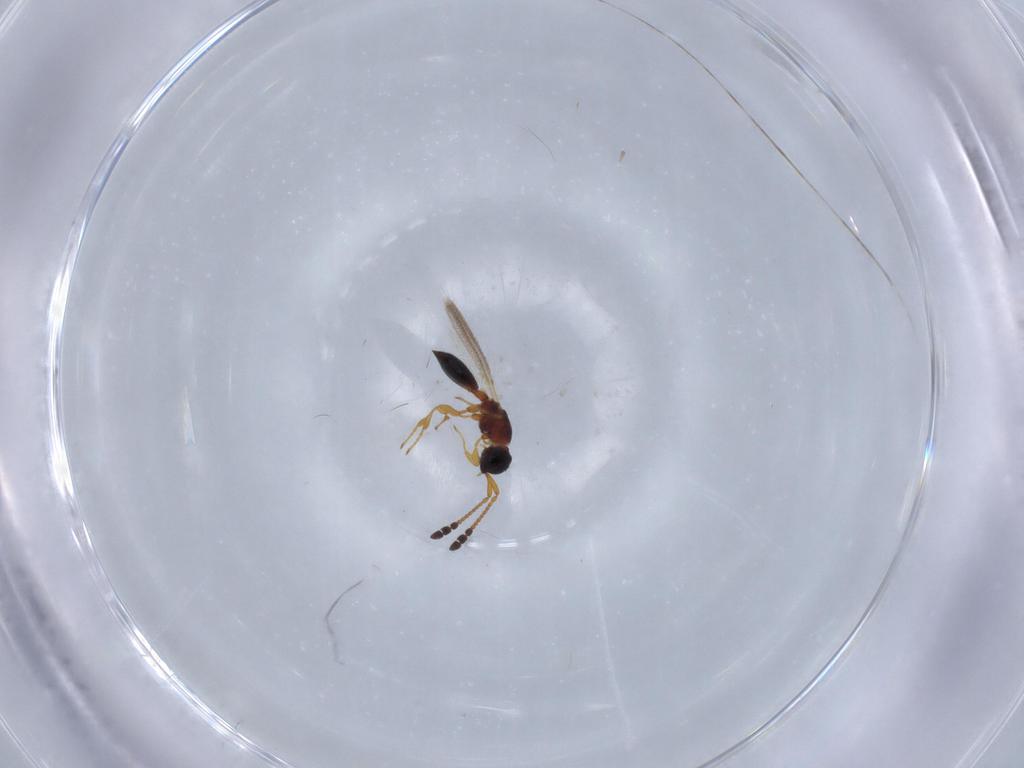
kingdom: Animalia
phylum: Arthropoda
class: Insecta
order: Hymenoptera
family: Diapriidae
